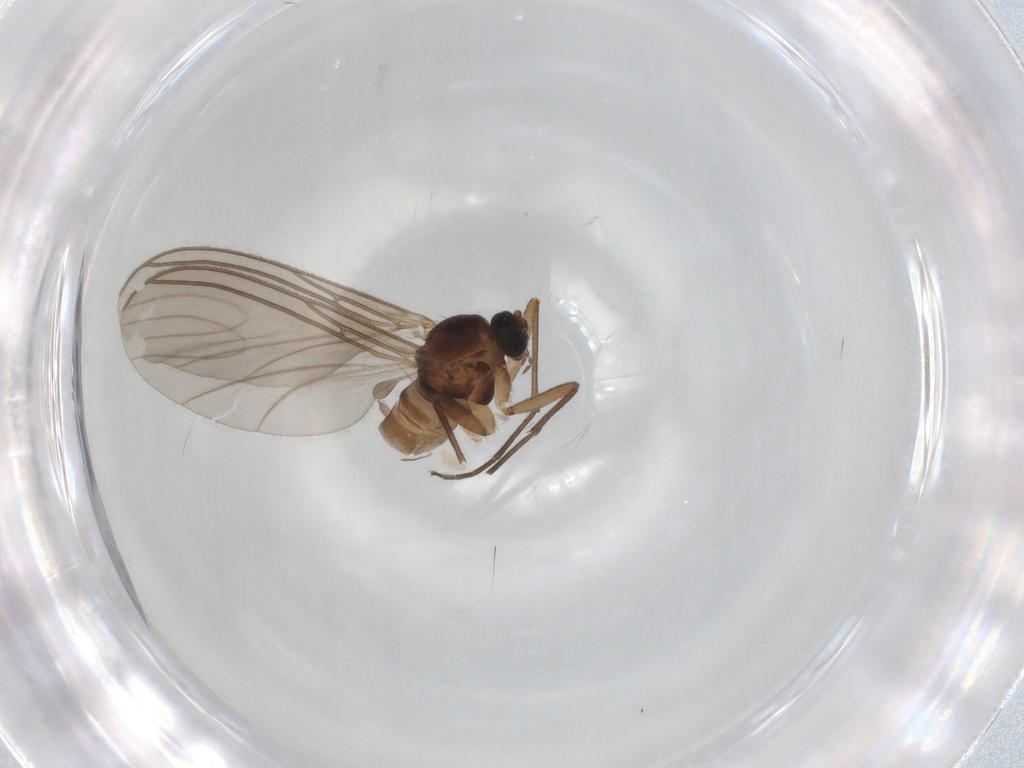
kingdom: Animalia
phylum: Arthropoda
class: Insecta
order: Diptera
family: Sciaridae
